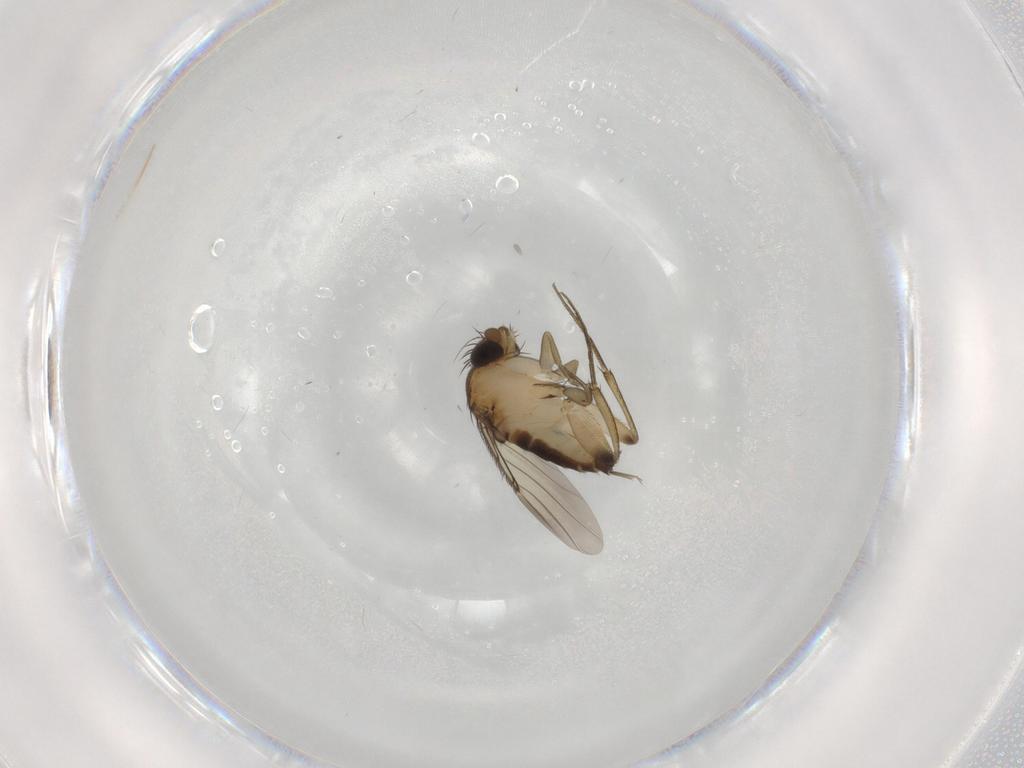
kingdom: Animalia
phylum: Arthropoda
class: Insecta
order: Diptera
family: Phoridae
